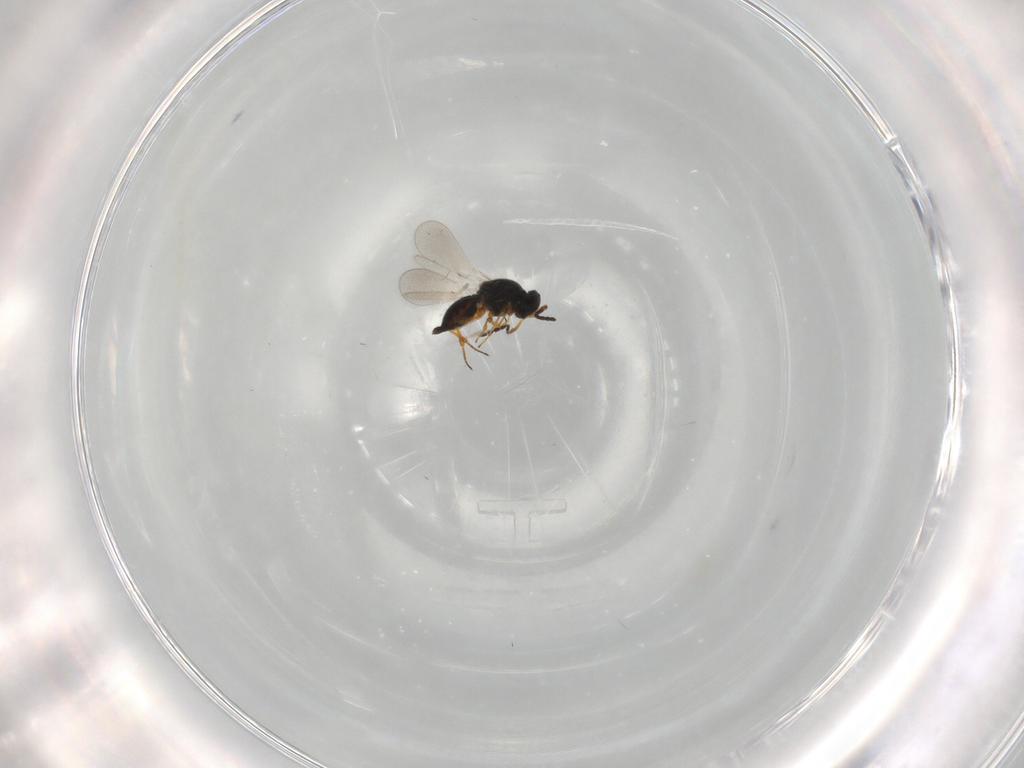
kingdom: Animalia
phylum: Arthropoda
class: Insecta
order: Hymenoptera
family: Platygastridae
